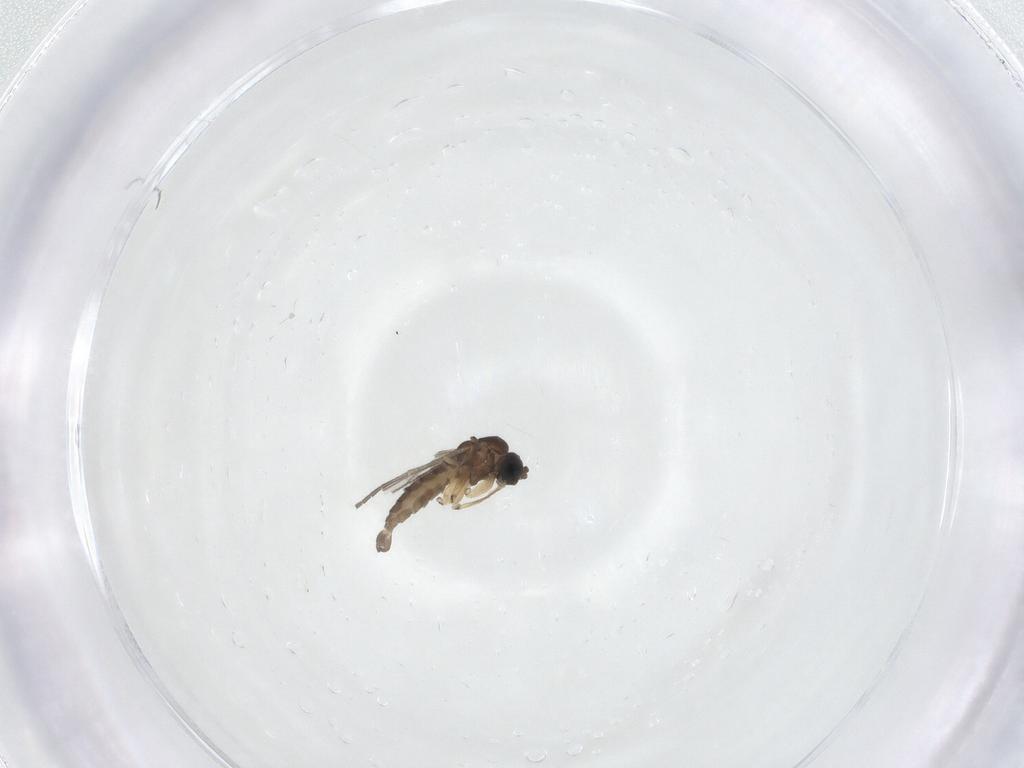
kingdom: Animalia
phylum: Arthropoda
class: Insecta
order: Diptera
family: Sciaridae
